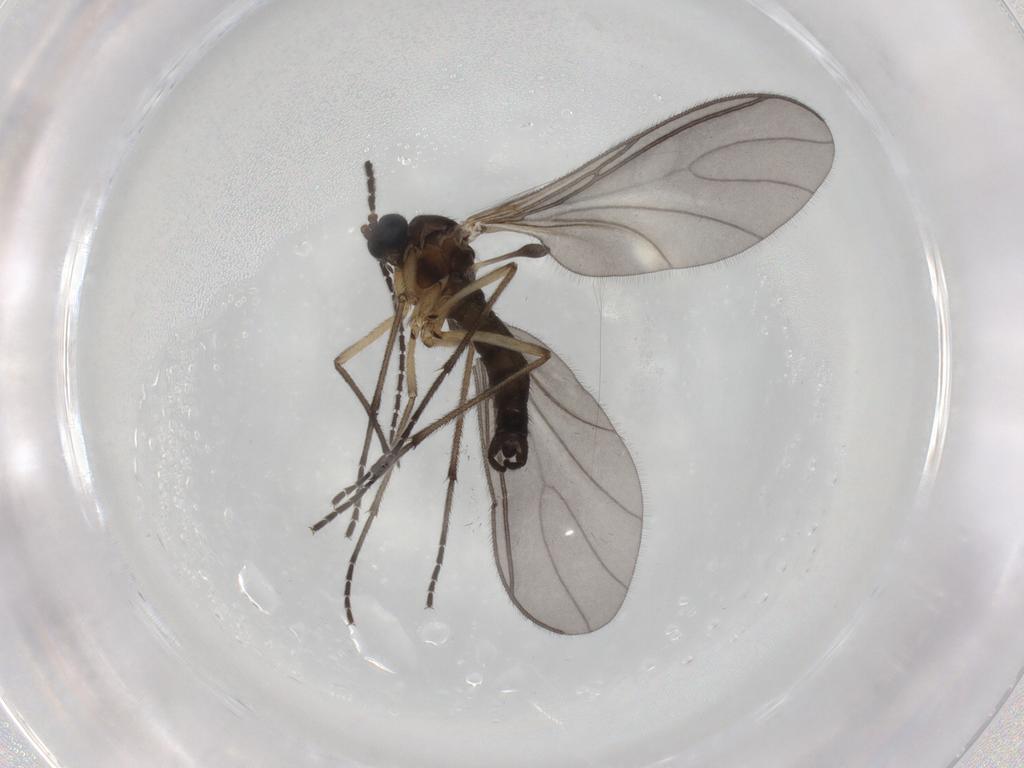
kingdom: Animalia
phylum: Arthropoda
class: Insecta
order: Diptera
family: Sciaridae
